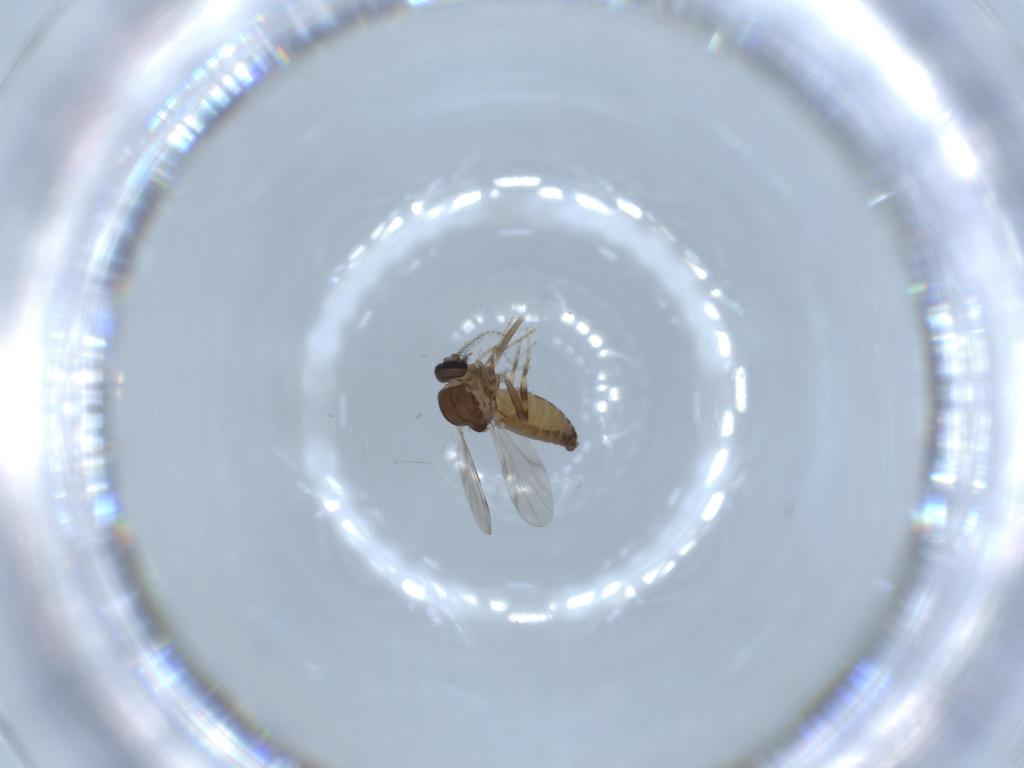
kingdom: Animalia
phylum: Arthropoda
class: Insecta
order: Diptera
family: Ceratopogonidae
